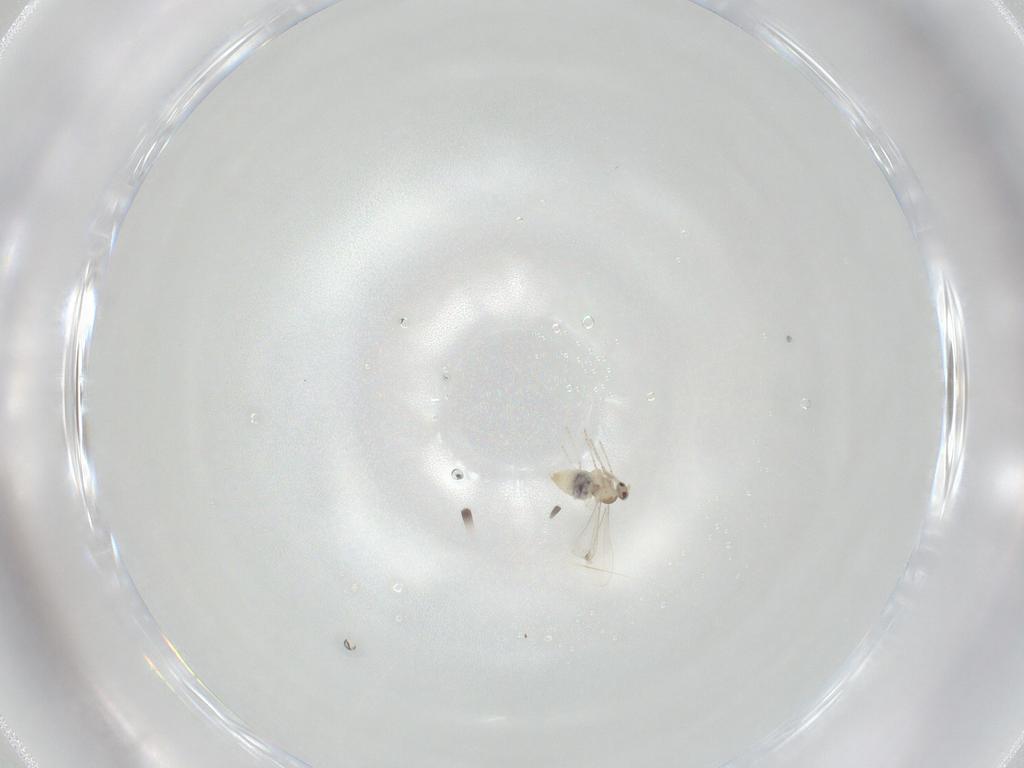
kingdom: Animalia
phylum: Arthropoda
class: Insecta
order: Diptera
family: Cecidomyiidae
